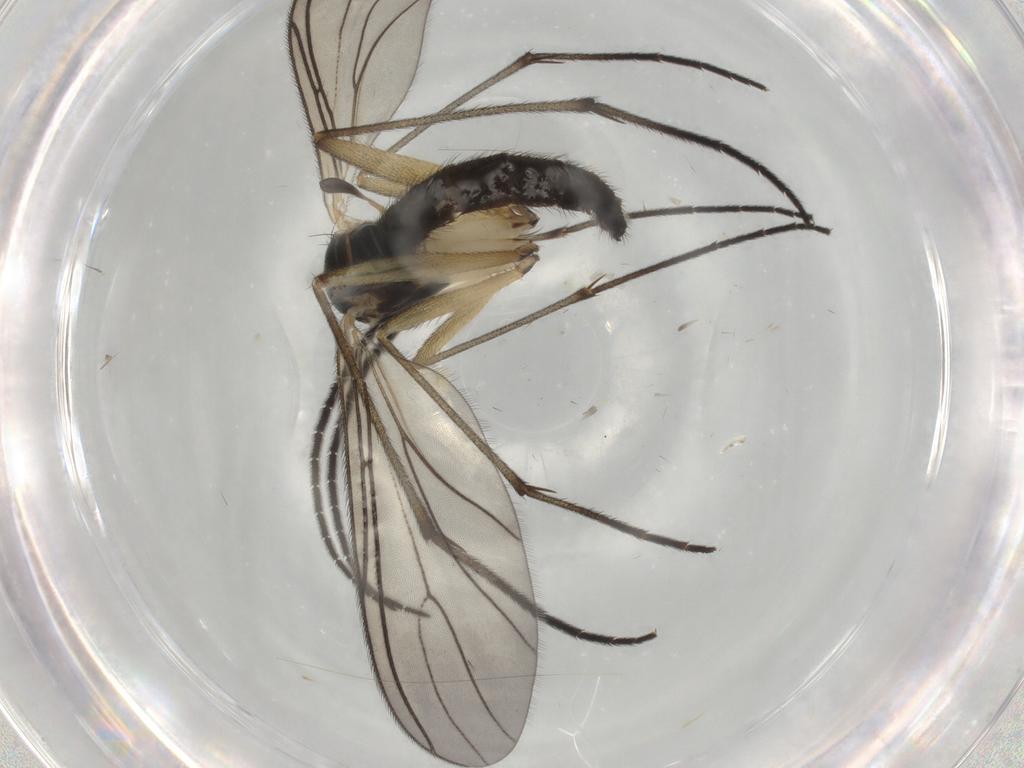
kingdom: Animalia
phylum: Arthropoda
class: Insecta
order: Diptera
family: Sciaridae
